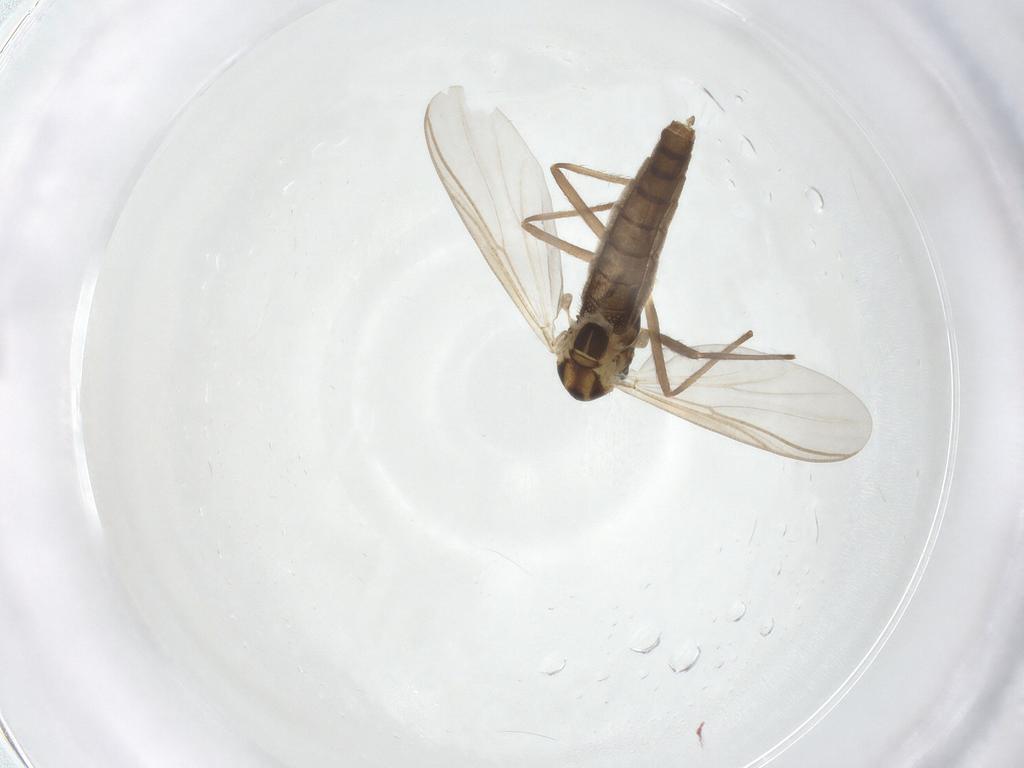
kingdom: Animalia
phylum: Arthropoda
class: Insecta
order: Diptera
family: Chironomidae
